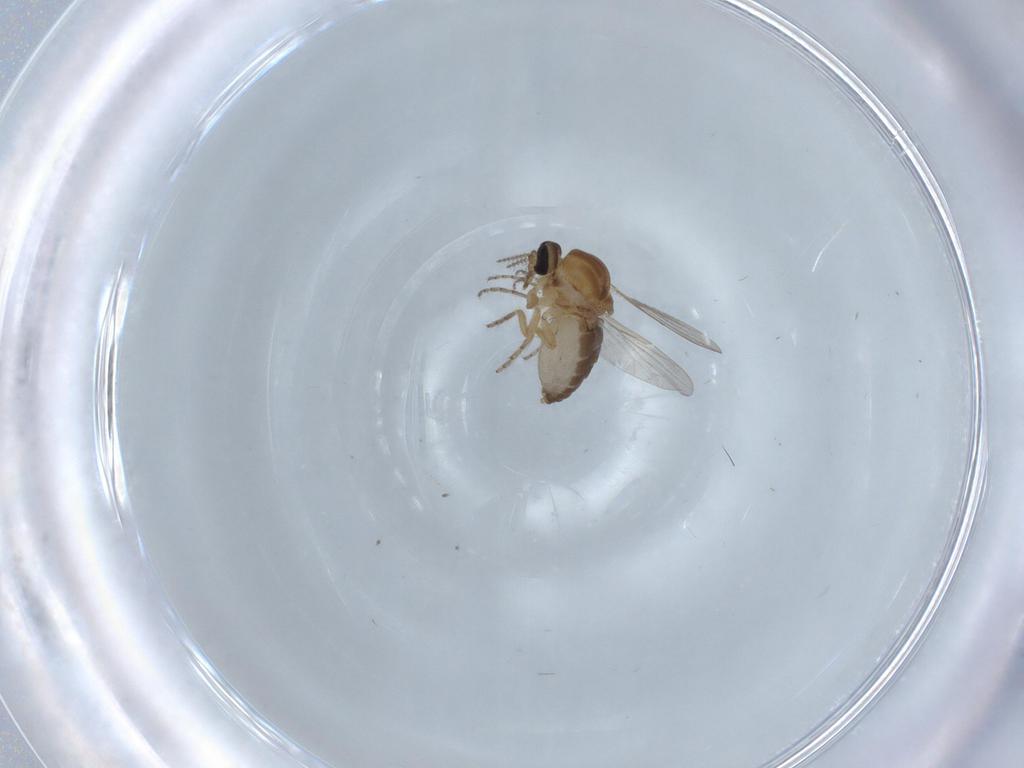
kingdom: Animalia
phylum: Arthropoda
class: Insecta
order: Diptera
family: Ceratopogonidae
